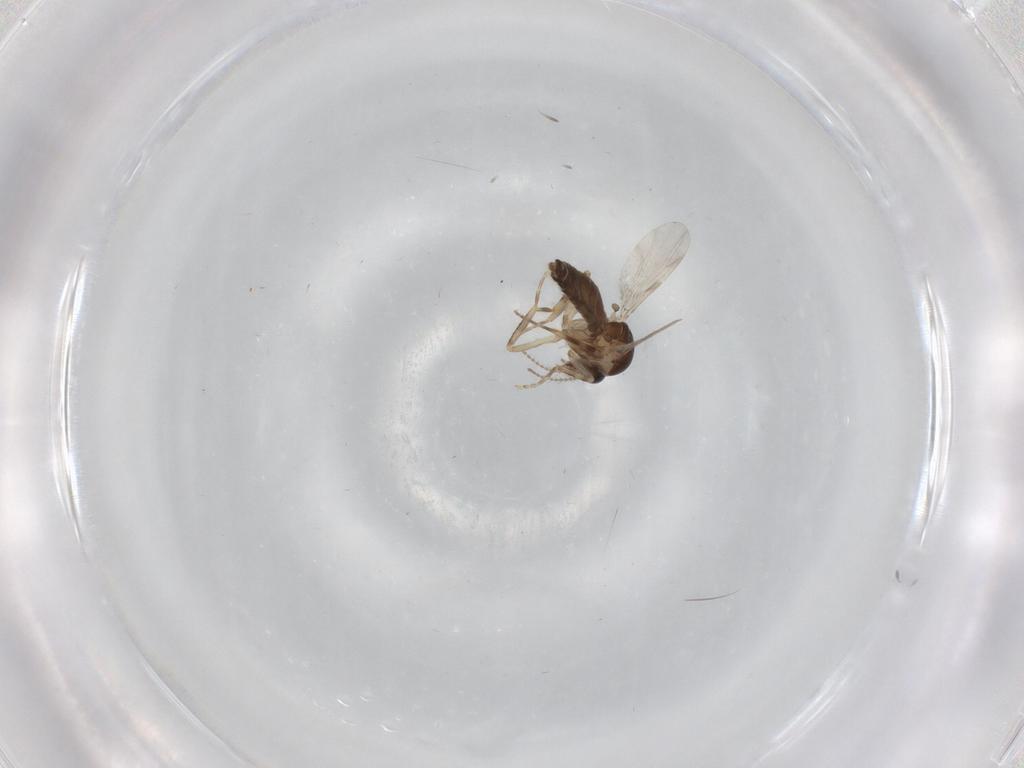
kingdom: Animalia
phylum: Arthropoda
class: Insecta
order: Diptera
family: Ceratopogonidae
